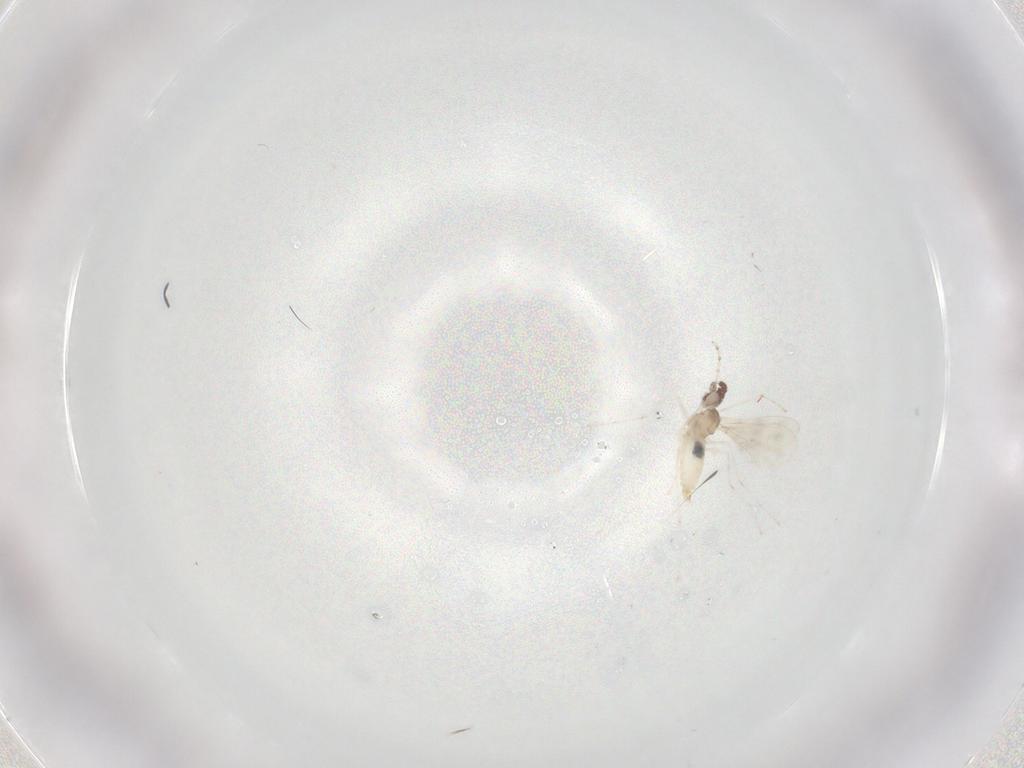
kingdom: Animalia
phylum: Arthropoda
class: Insecta
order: Diptera
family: Cecidomyiidae
